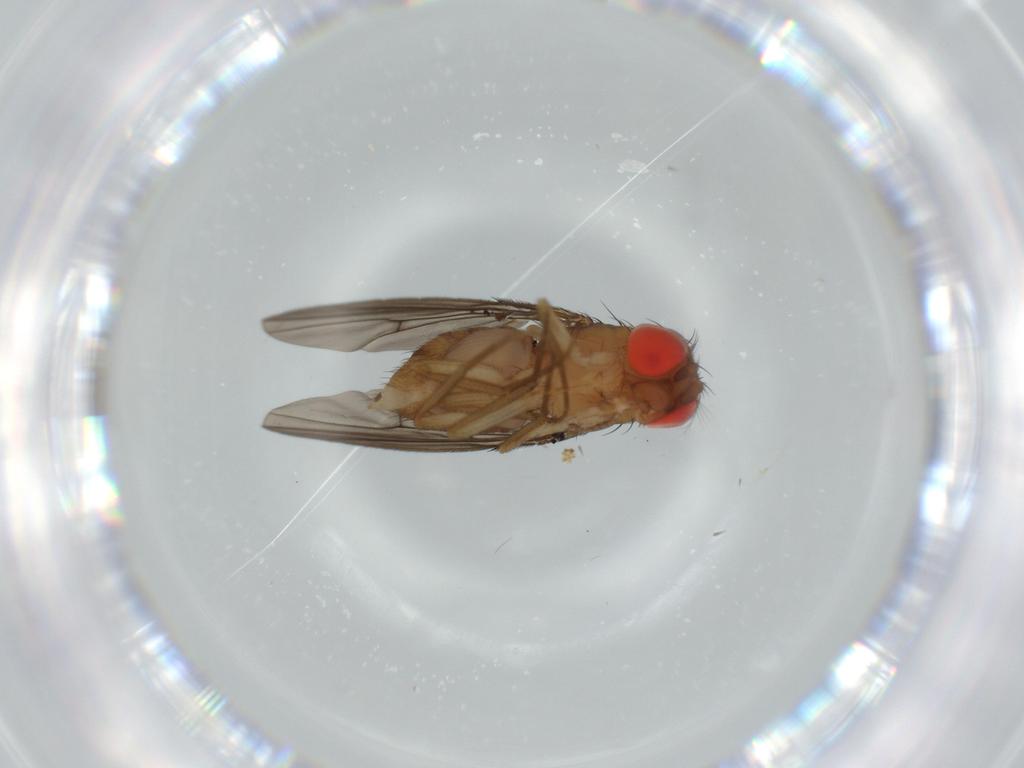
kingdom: Animalia
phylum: Arthropoda
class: Insecta
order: Diptera
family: Drosophilidae
